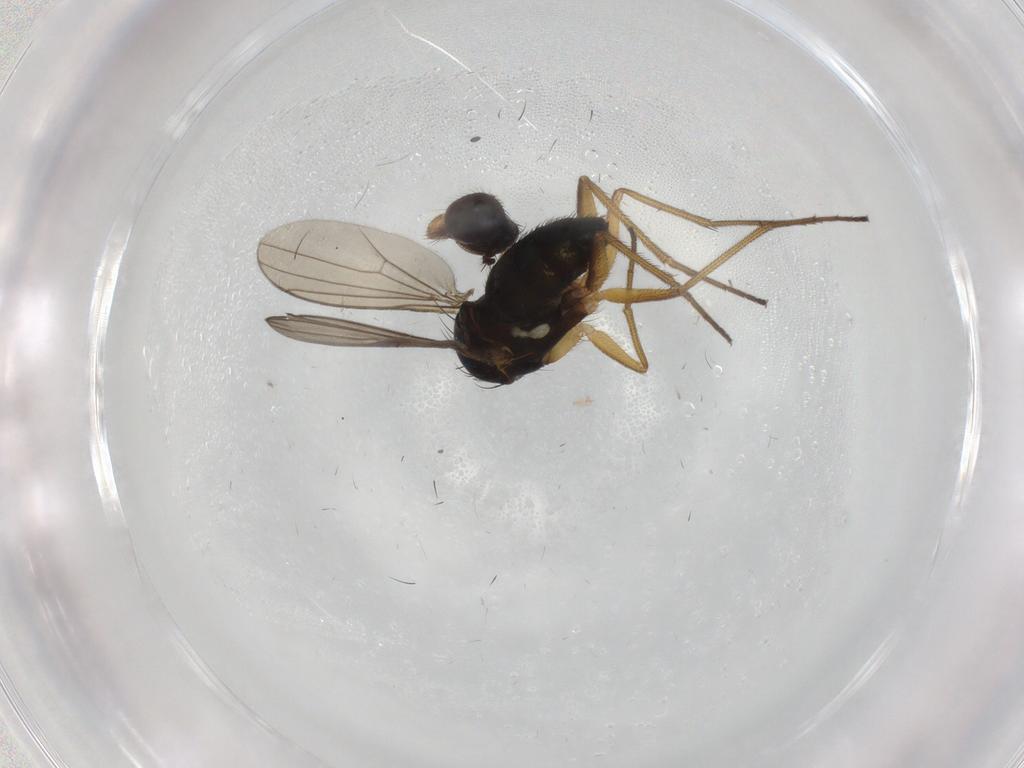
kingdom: Animalia
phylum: Arthropoda
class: Insecta
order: Diptera
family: Dolichopodidae
